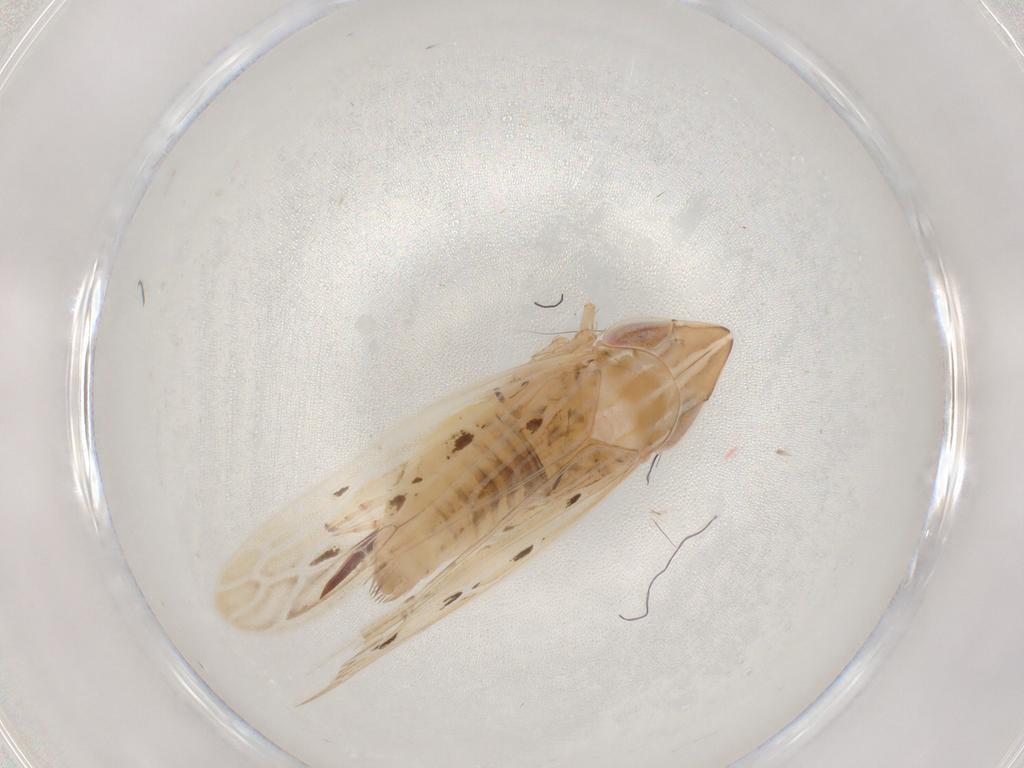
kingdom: Animalia
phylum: Arthropoda
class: Insecta
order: Hemiptera
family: Cicadellidae
